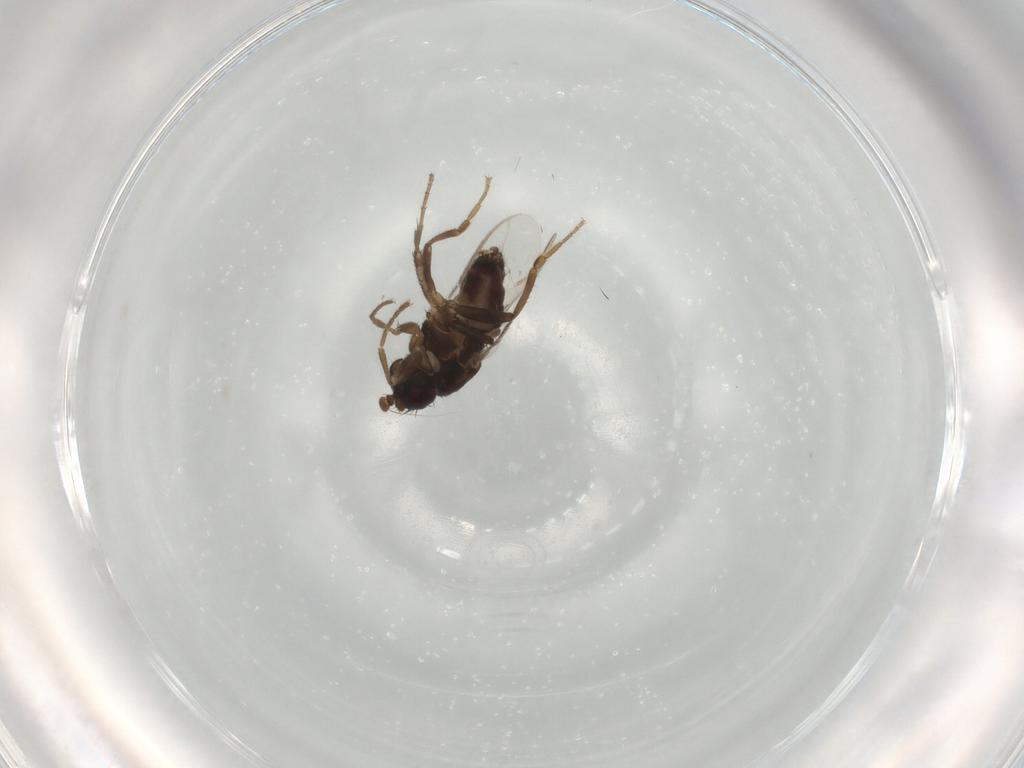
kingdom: Animalia
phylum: Arthropoda
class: Insecta
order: Diptera
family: Sphaeroceridae
